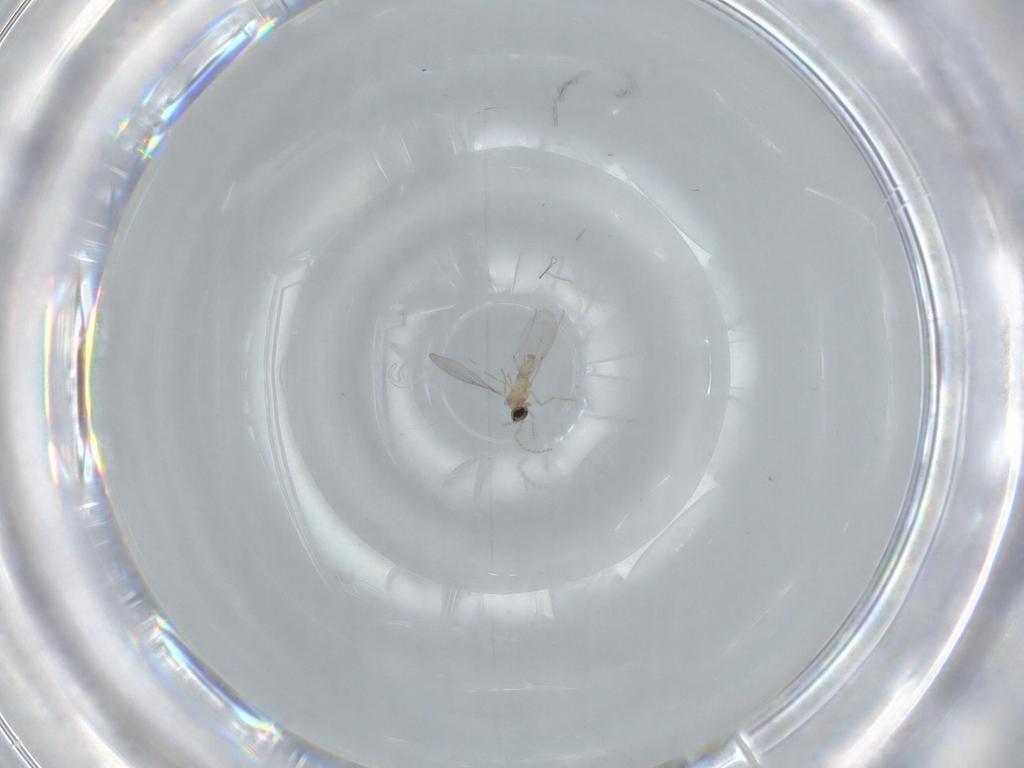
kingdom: Animalia
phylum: Arthropoda
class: Insecta
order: Diptera
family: Cecidomyiidae
